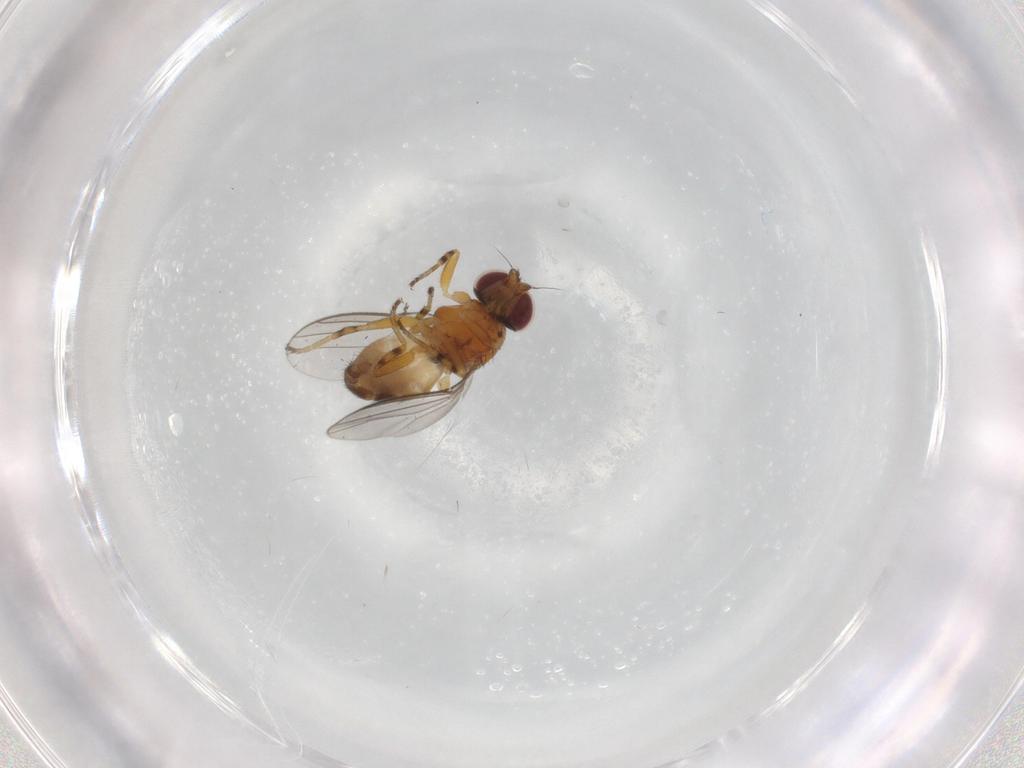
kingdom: Animalia
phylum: Arthropoda
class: Insecta
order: Diptera
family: Chloropidae
